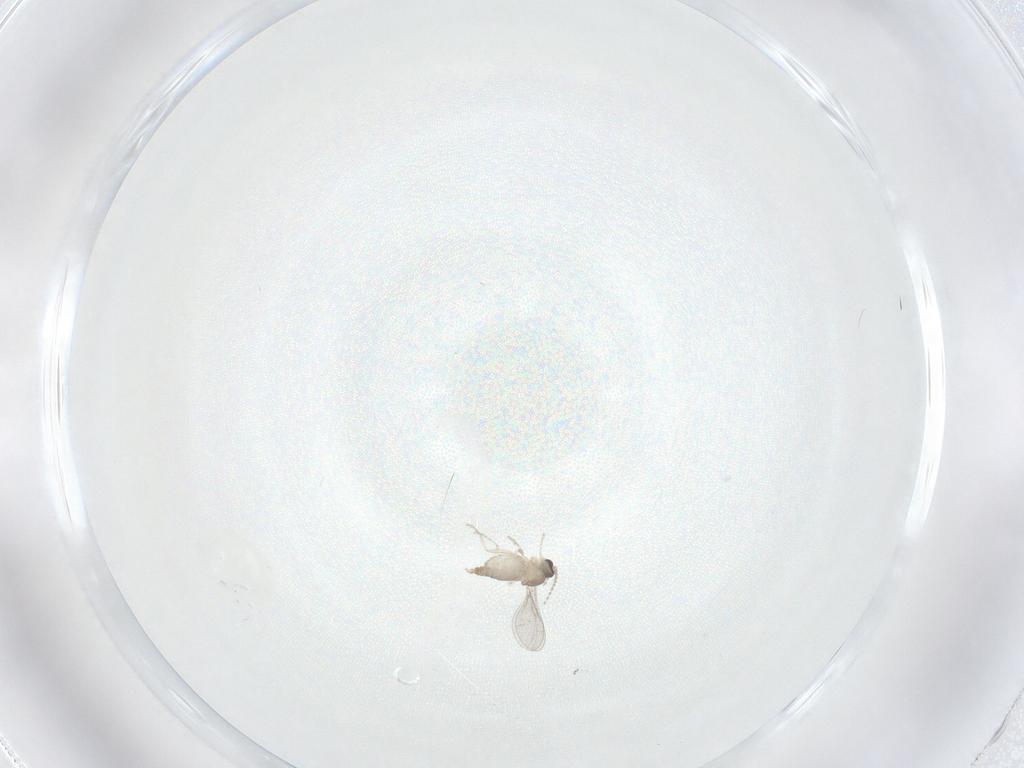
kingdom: Animalia
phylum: Arthropoda
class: Insecta
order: Diptera
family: Cecidomyiidae
